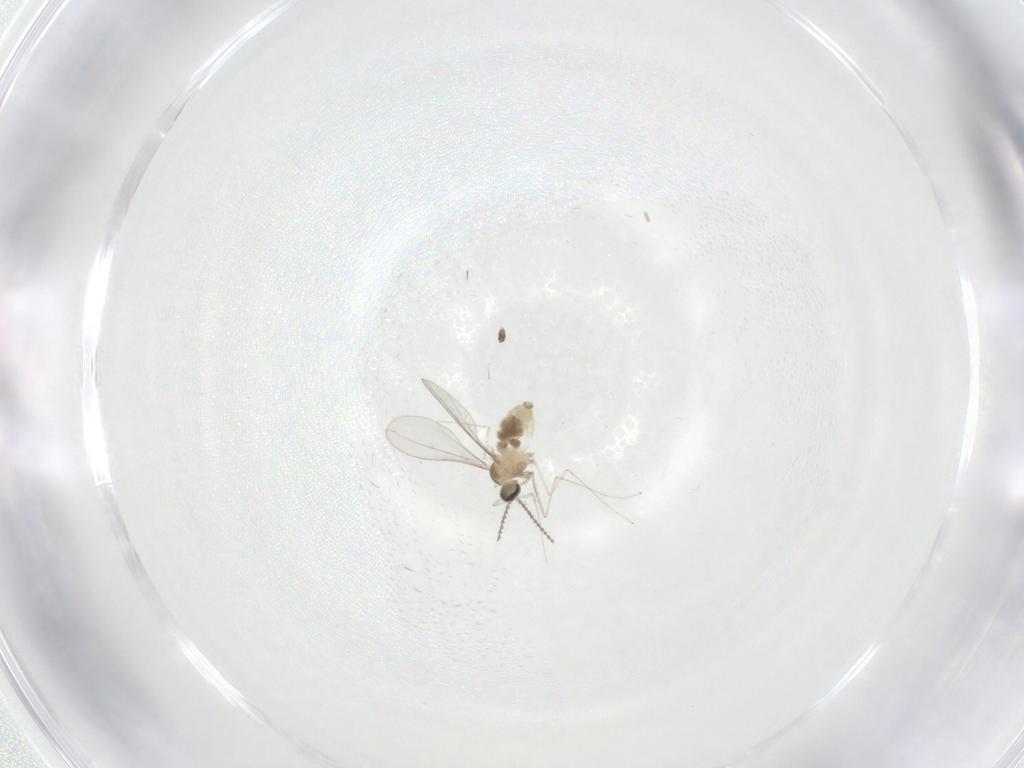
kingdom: Animalia
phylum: Arthropoda
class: Insecta
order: Diptera
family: Cecidomyiidae
